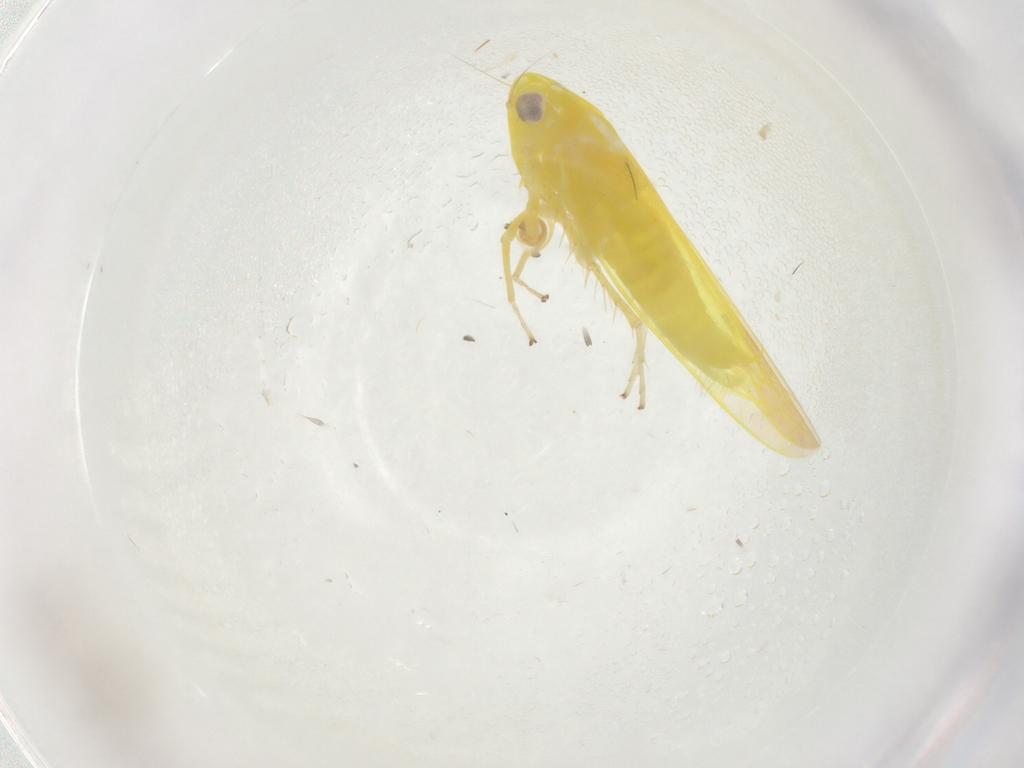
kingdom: Animalia
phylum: Arthropoda
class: Insecta
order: Hemiptera
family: Cicadellidae
